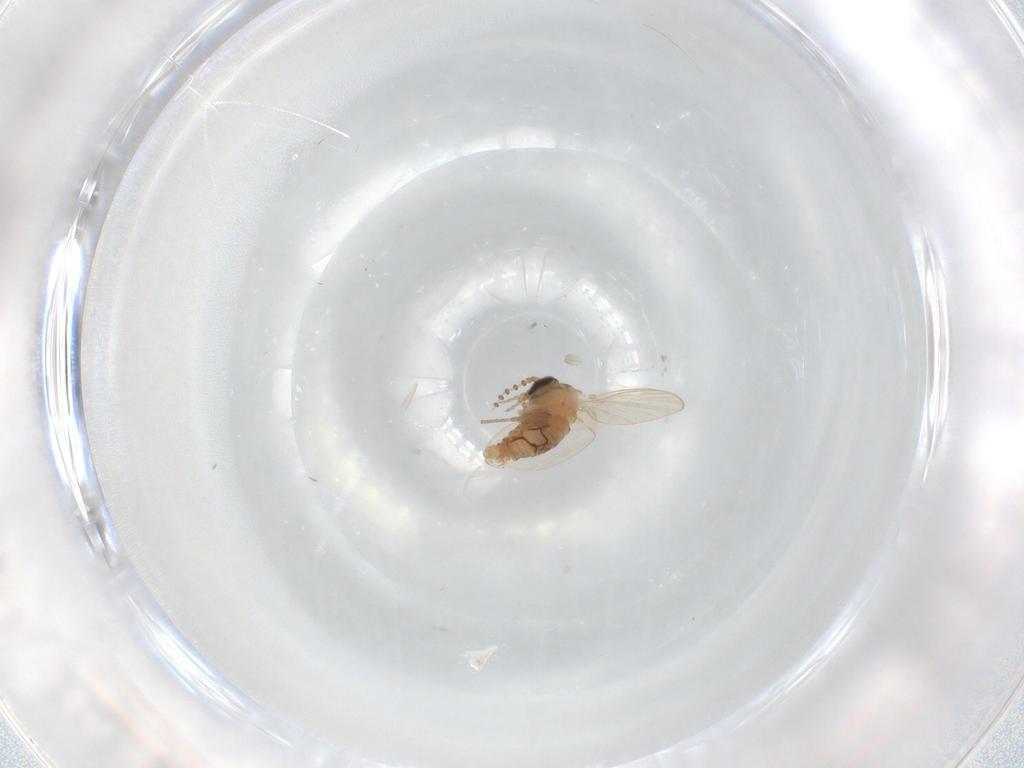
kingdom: Animalia
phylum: Arthropoda
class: Insecta
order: Diptera
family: Psychodidae
